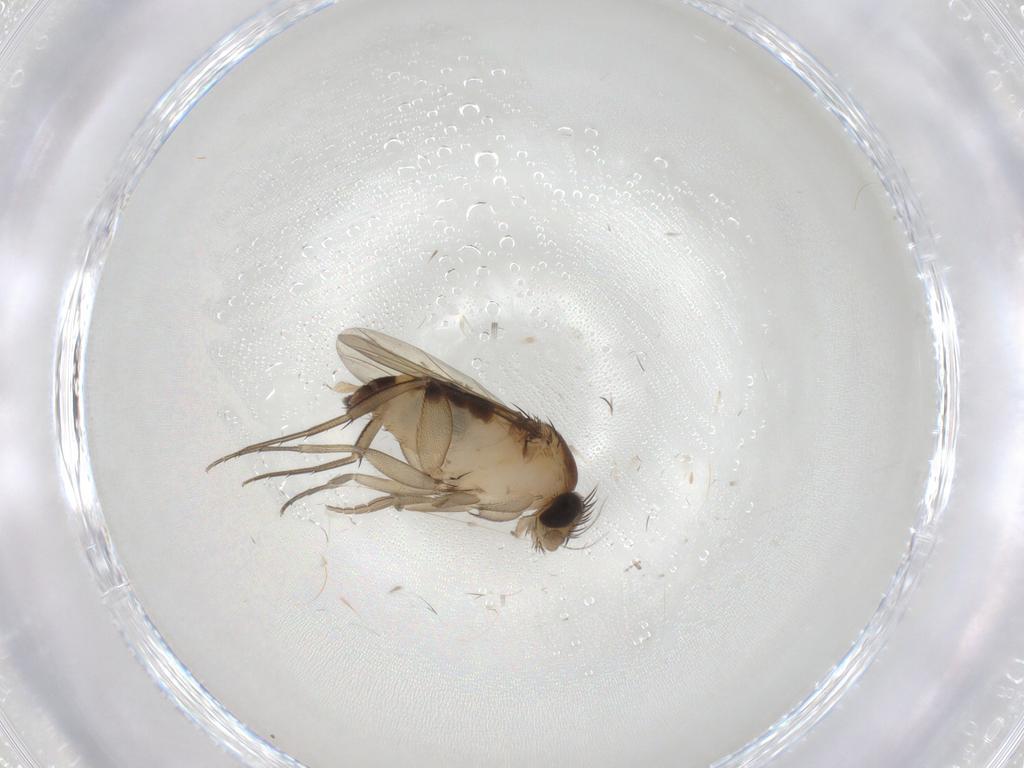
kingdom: Animalia
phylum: Arthropoda
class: Insecta
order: Diptera
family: Phoridae
